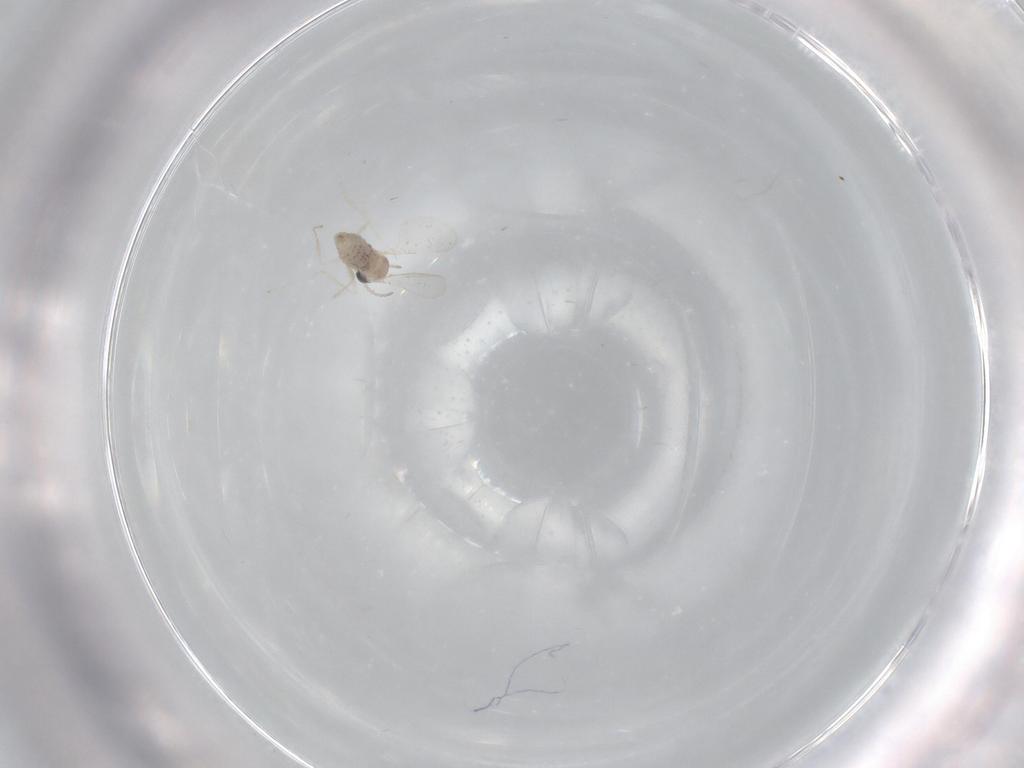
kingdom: Animalia
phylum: Arthropoda
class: Insecta
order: Diptera
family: Cecidomyiidae
